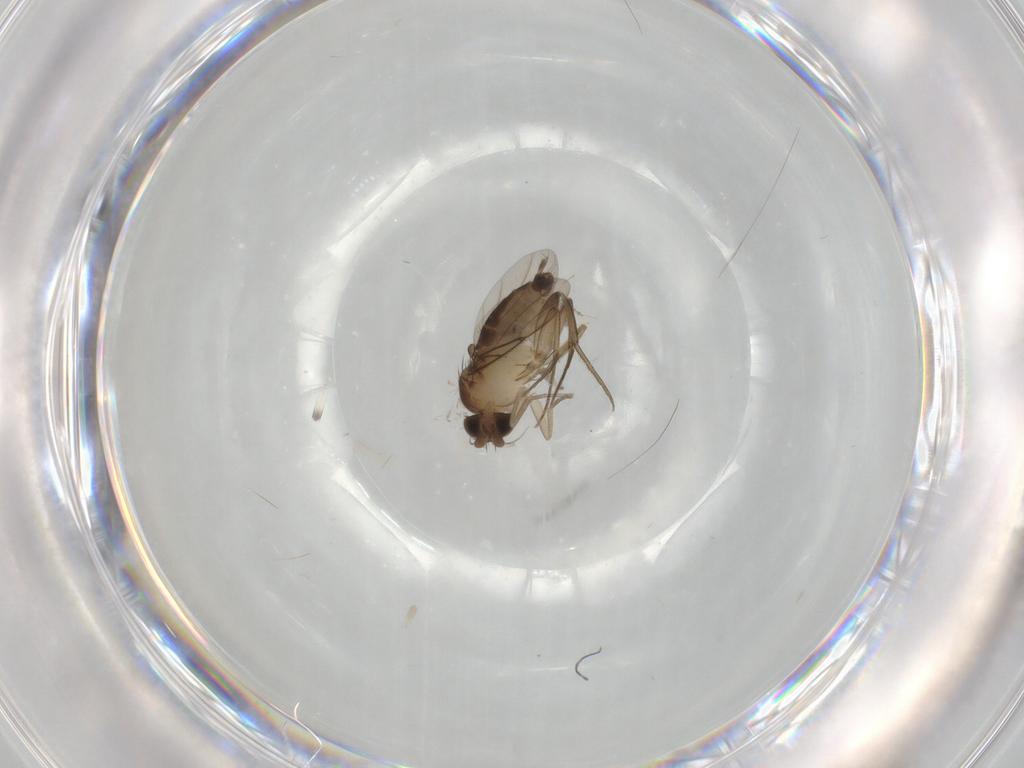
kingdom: Animalia
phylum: Arthropoda
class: Insecta
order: Diptera
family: Phoridae
